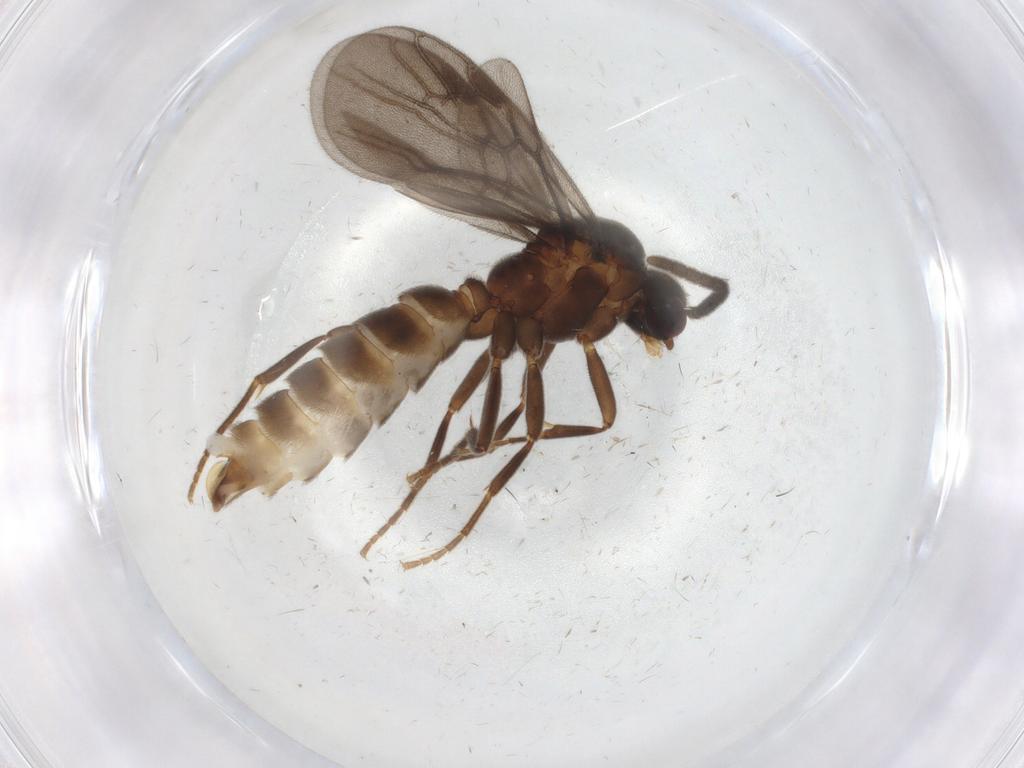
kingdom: Animalia
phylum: Arthropoda
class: Insecta
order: Hymenoptera
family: Formicidae
